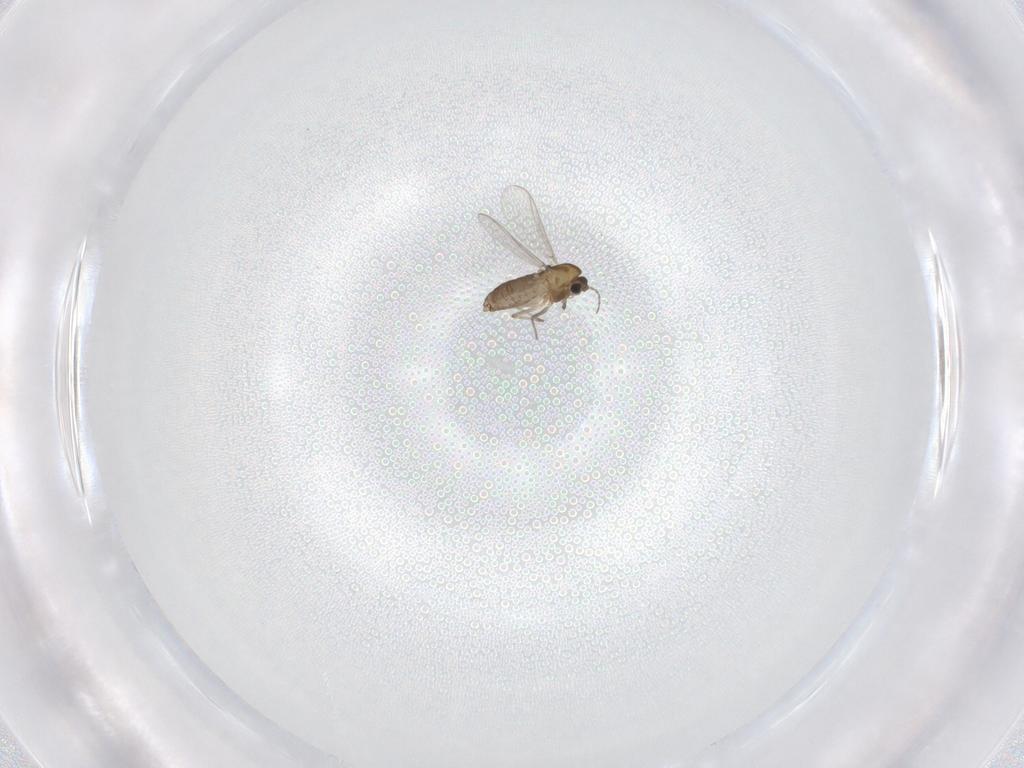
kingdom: Animalia
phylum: Arthropoda
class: Insecta
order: Diptera
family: Chironomidae
